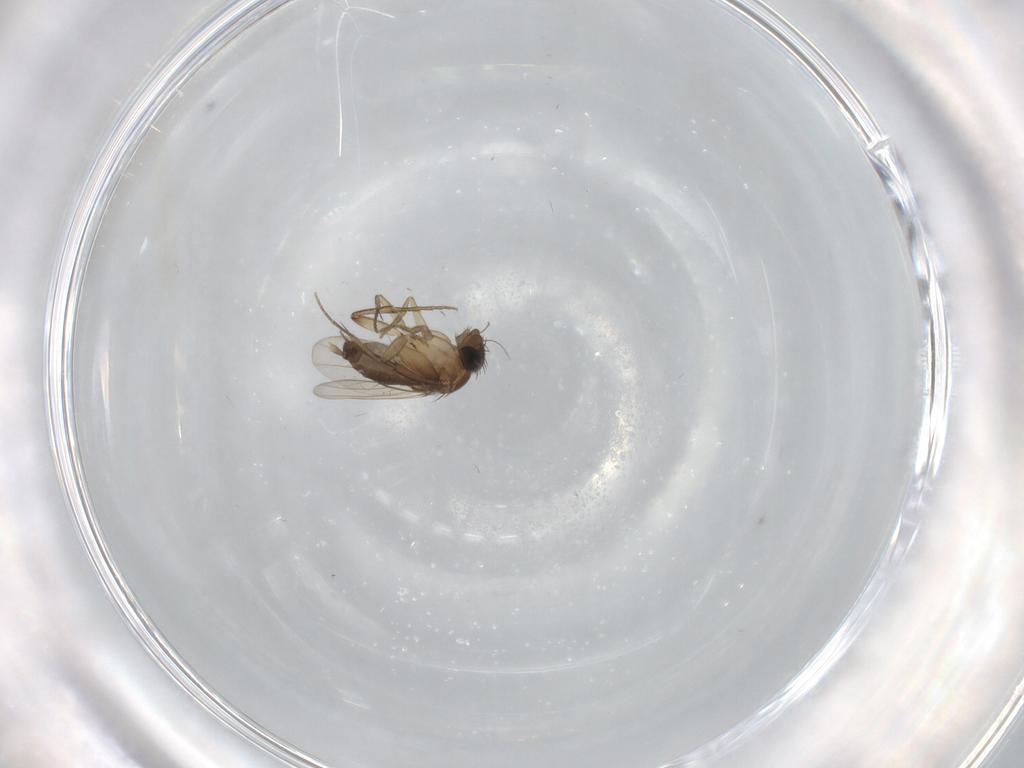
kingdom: Animalia
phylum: Arthropoda
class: Insecta
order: Diptera
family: Phoridae
